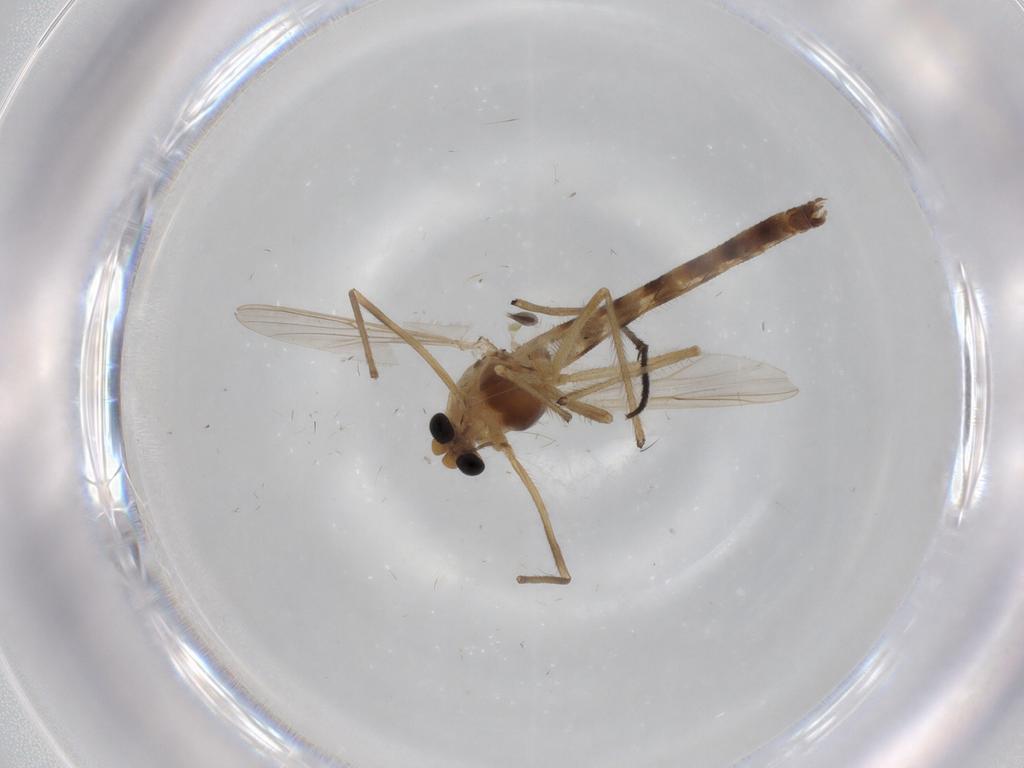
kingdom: Animalia
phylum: Arthropoda
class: Insecta
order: Diptera
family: Chironomidae
